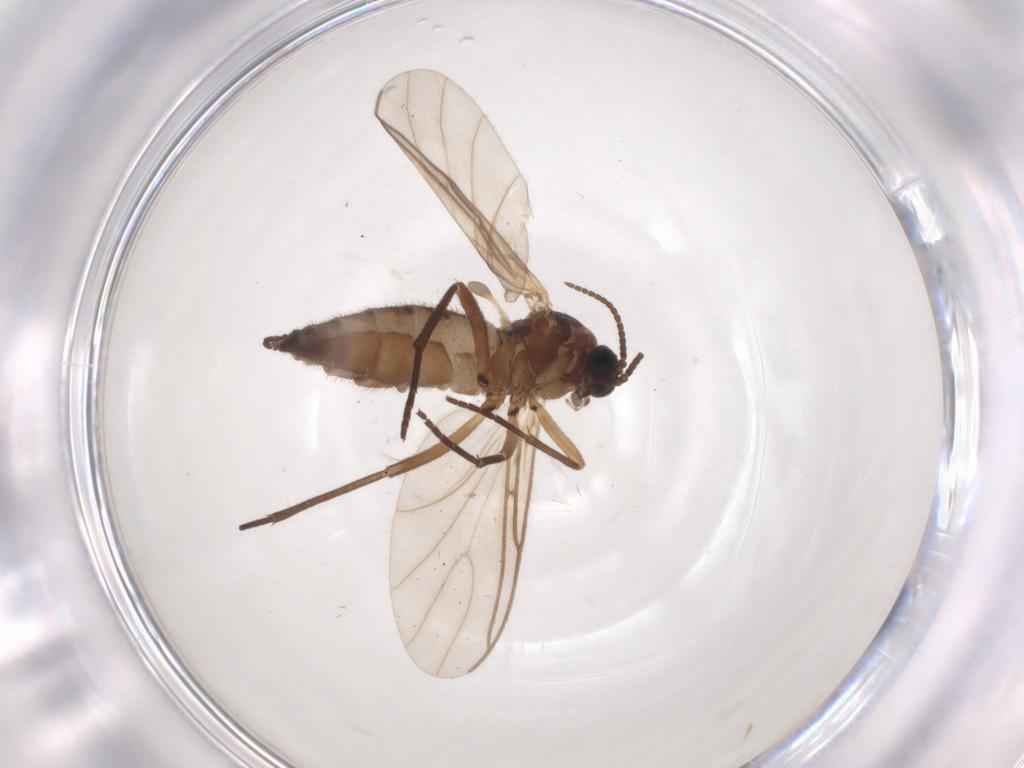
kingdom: Animalia
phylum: Arthropoda
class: Insecta
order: Diptera
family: Sciaridae
